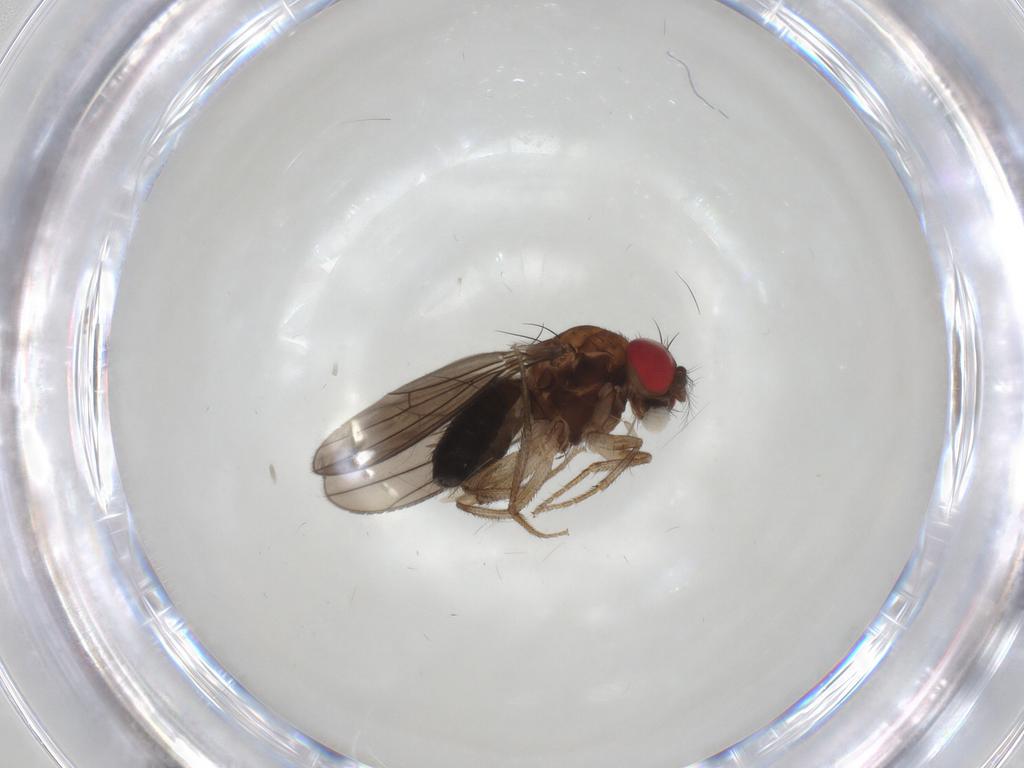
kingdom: Animalia
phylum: Arthropoda
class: Insecta
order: Diptera
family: Drosophilidae
